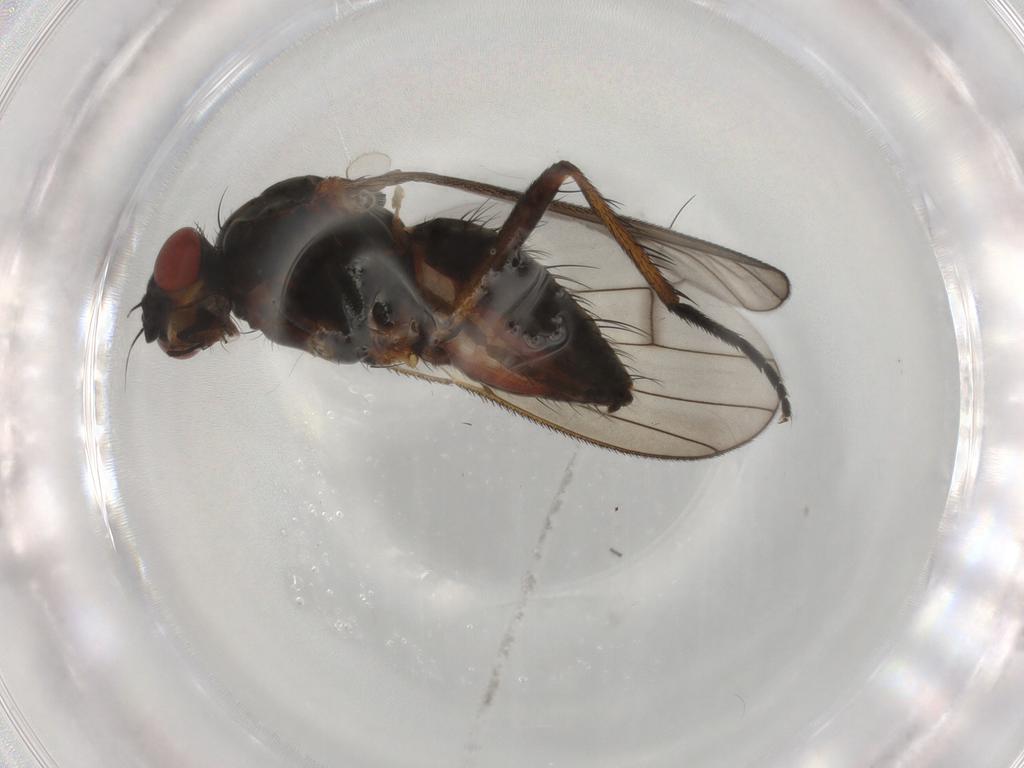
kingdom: Animalia
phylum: Arthropoda
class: Insecta
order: Diptera
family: Anthomyiidae
